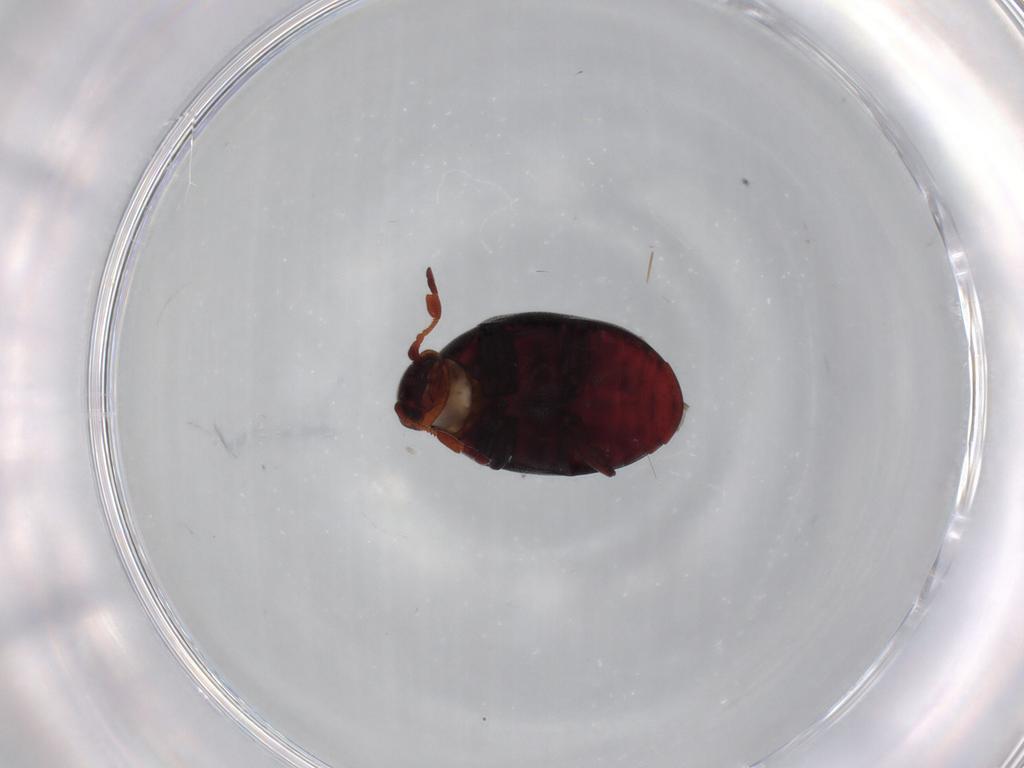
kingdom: Animalia
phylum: Arthropoda
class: Insecta
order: Coleoptera
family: Ptinidae
